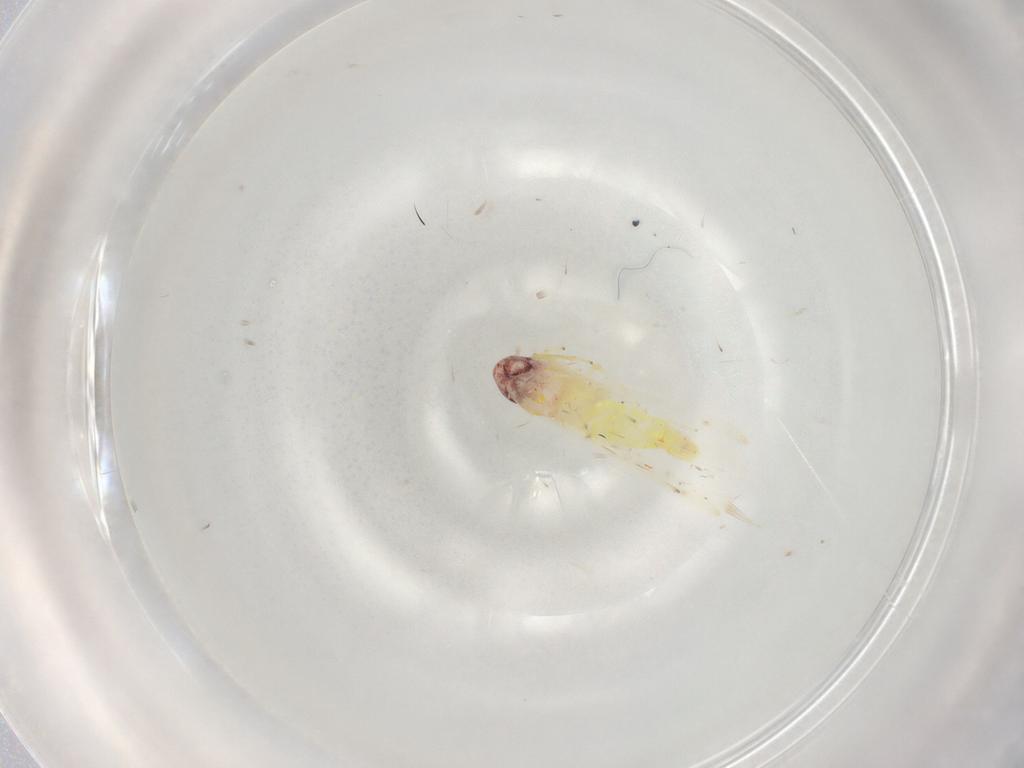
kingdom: Animalia
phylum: Arthropoda
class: Insecta
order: Hemiptera
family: Cicadellidae
